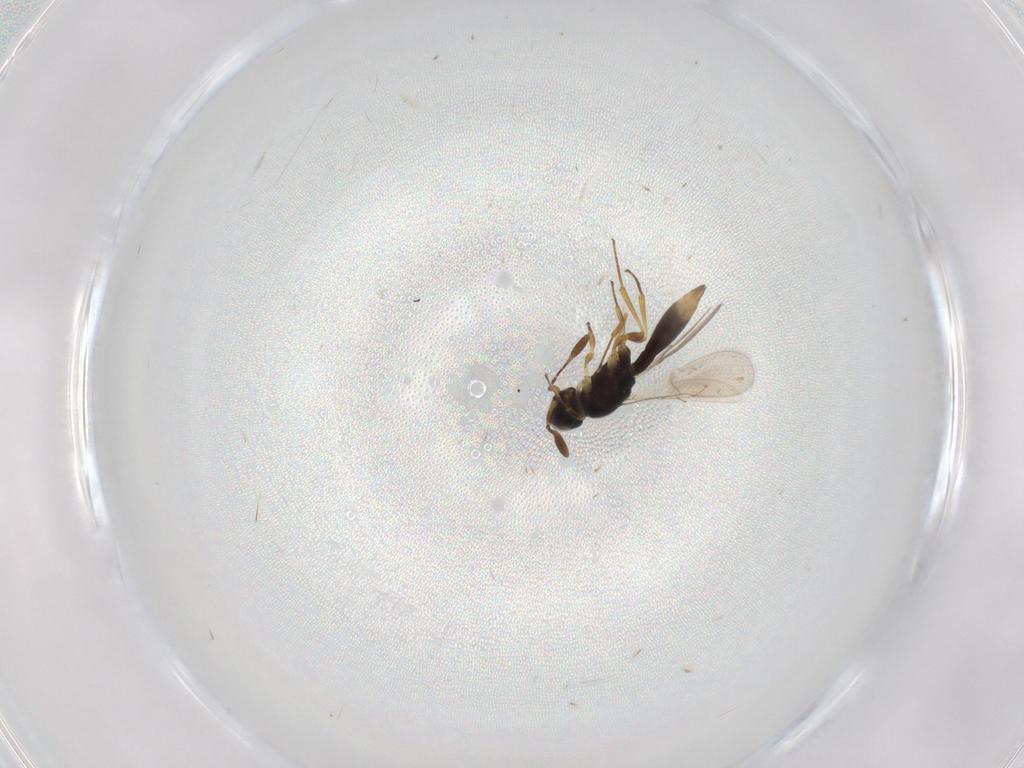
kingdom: Animalia
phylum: Arthropoda
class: Insecta
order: Hymenoptera
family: Scelionidae
